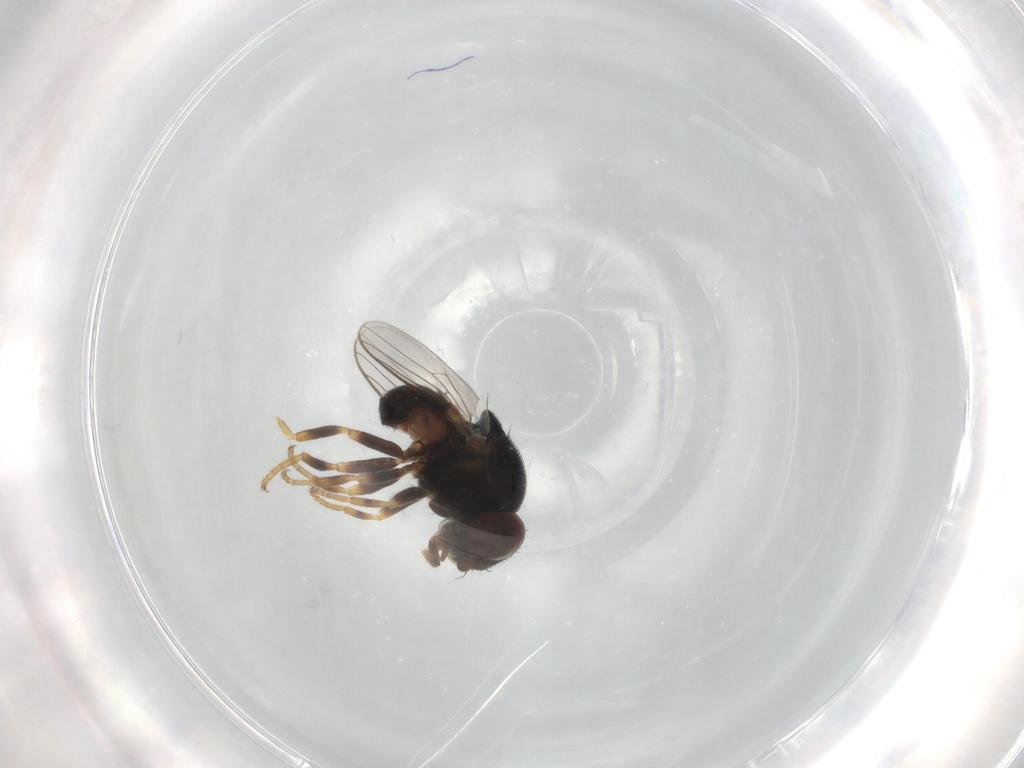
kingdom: Animalia
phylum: Arthropoda
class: Insecta
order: Diptera
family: Chloropidae
